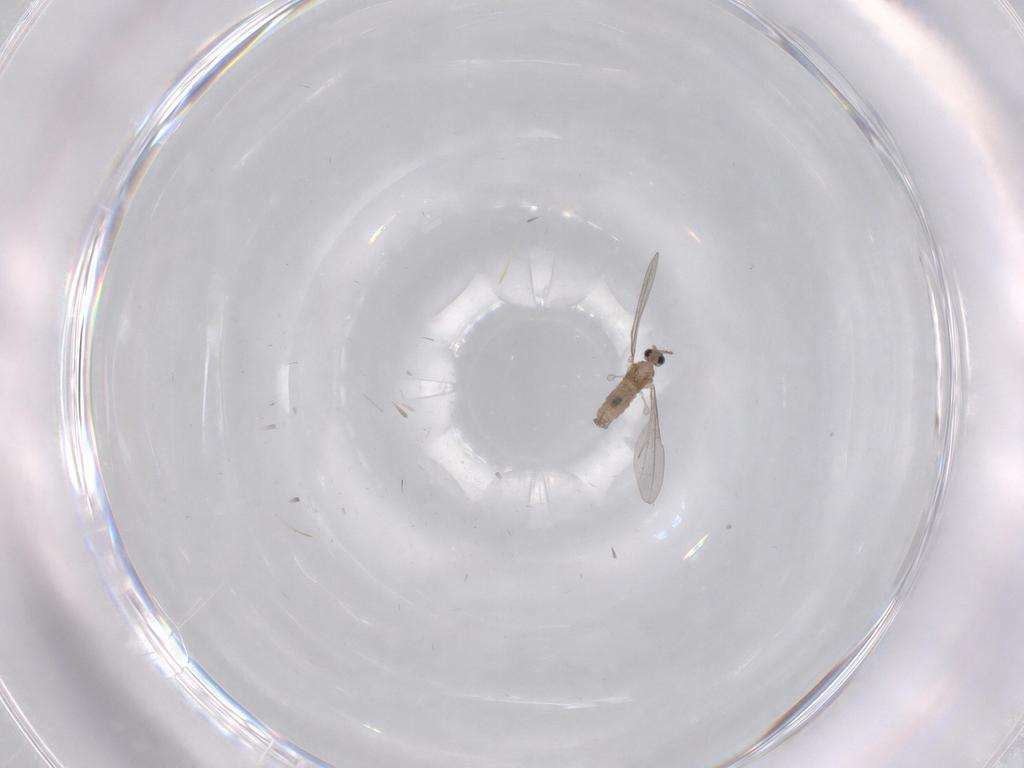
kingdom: Animalia
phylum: Arthropoda
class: Insecta
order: Diptera
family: Cecidomyiidae
